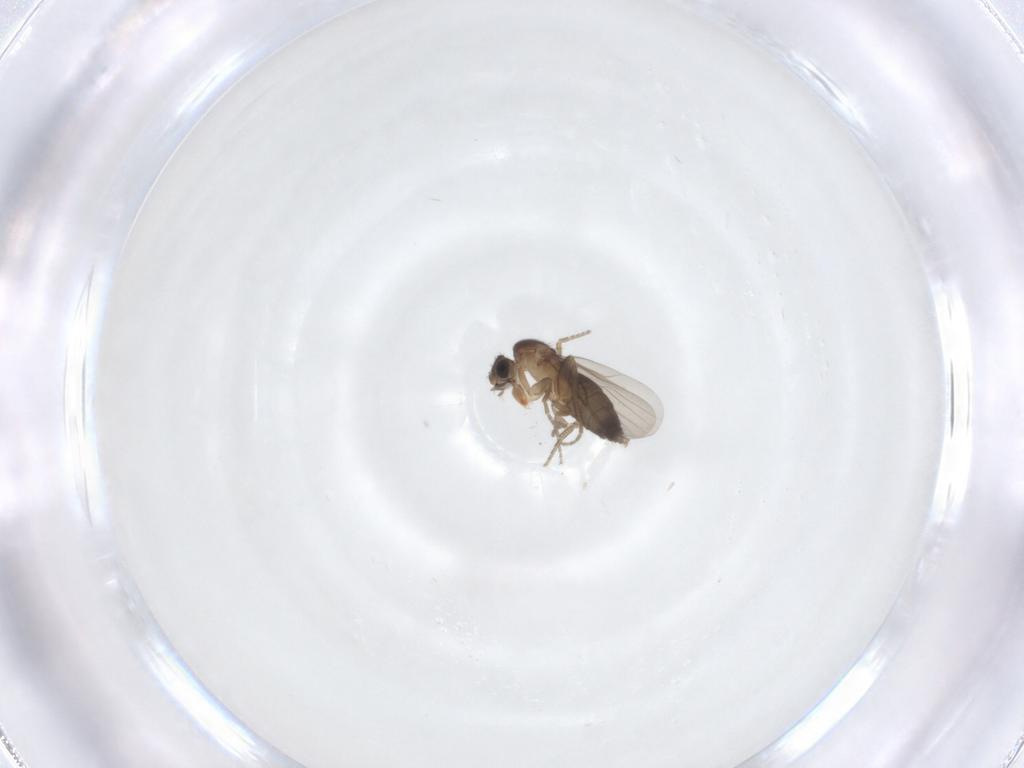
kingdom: Animalia
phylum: Arthropoda
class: Insecta
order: Diptera
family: Phoridae
